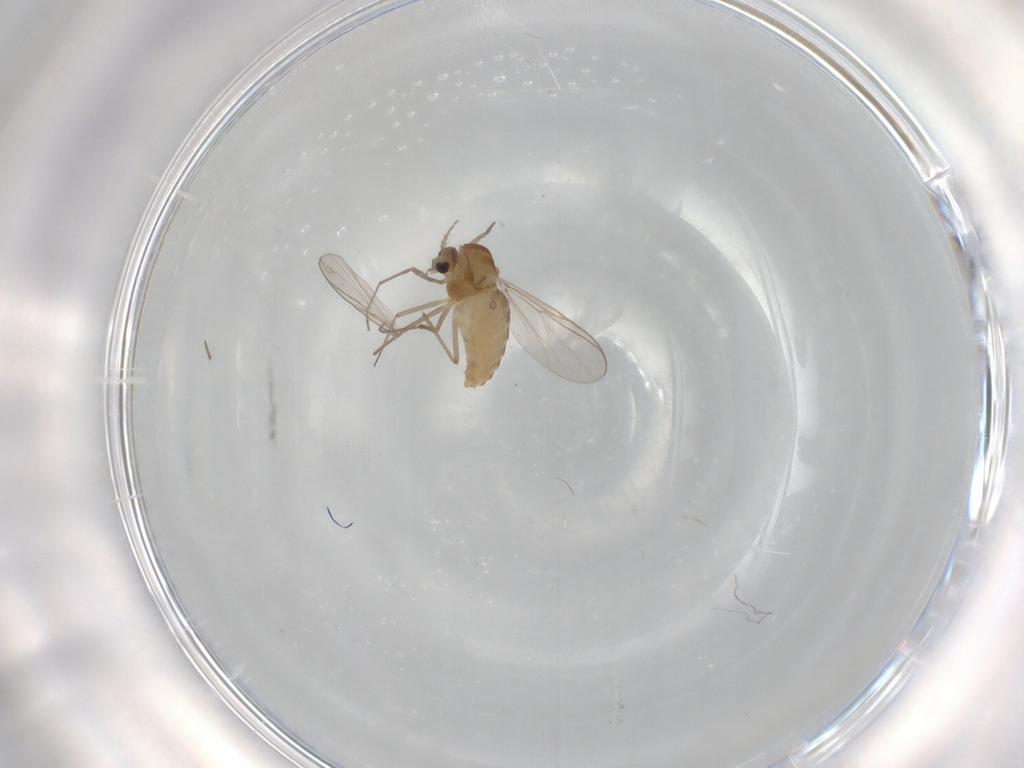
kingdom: Animalia
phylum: Arthropoda
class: Insecta
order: Diptera
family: Chironomidae
